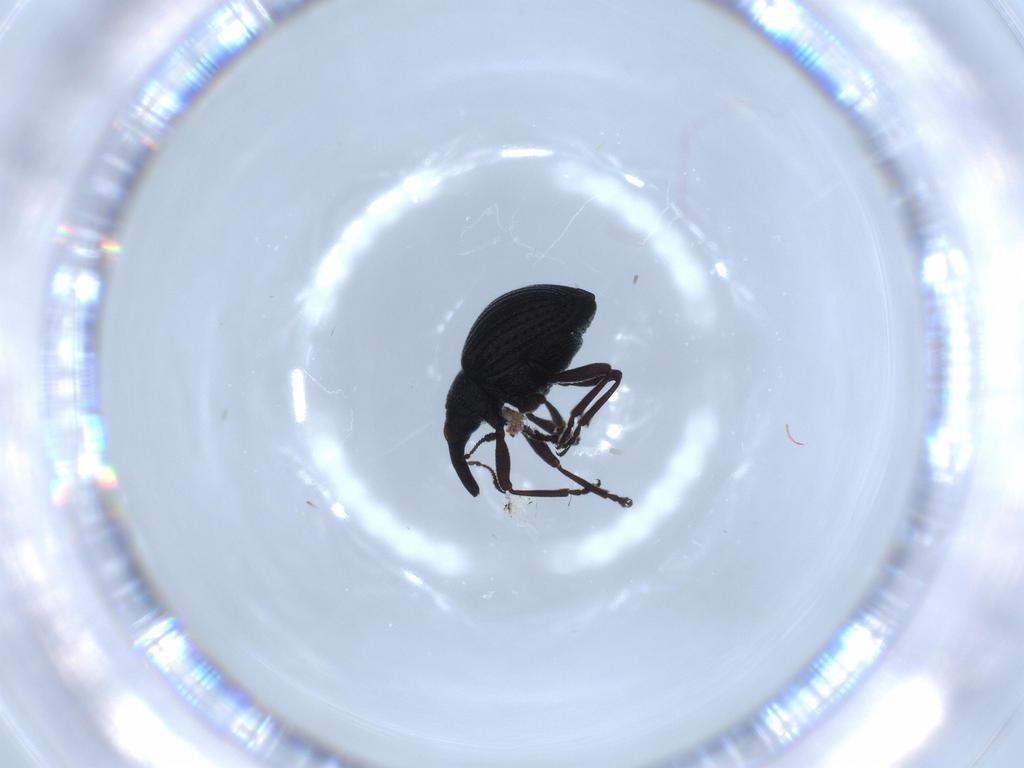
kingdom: Animalia
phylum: Arthropoda
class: Insecta
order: Coleoptera
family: Brentidae
